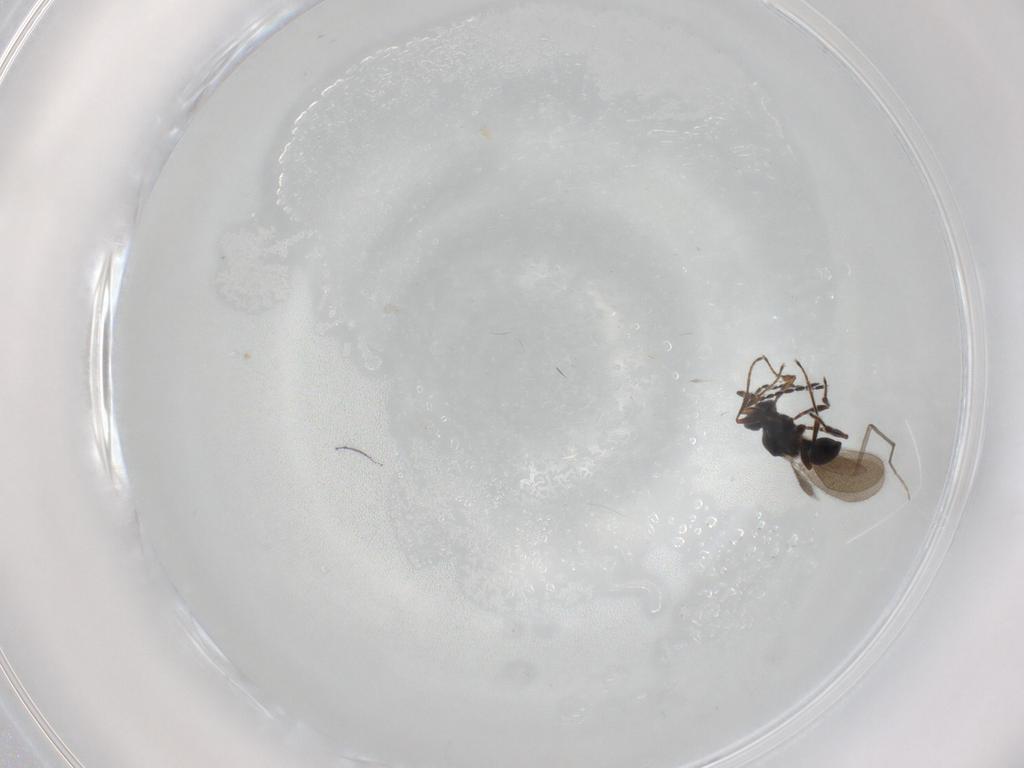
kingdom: Animalia
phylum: Arthropoda
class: Insecta
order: Hymenoptera
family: Platygastridae
